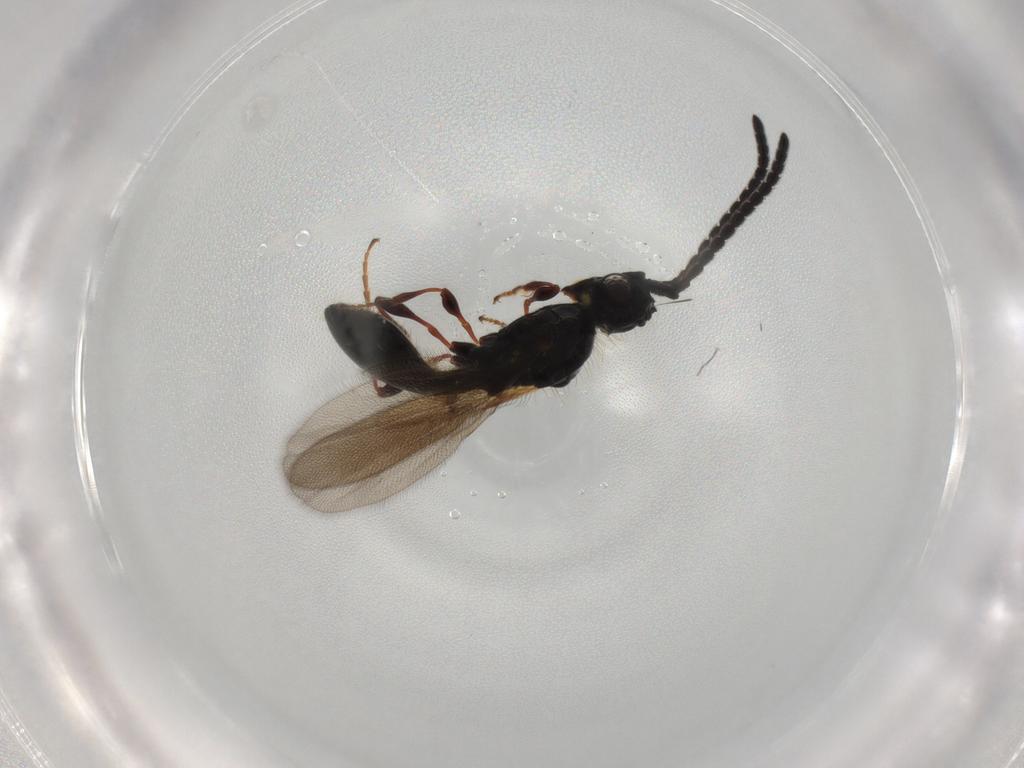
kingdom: Animalia
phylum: Arthropoda
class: Insecta
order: Hymenoptera
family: Diapriidae
